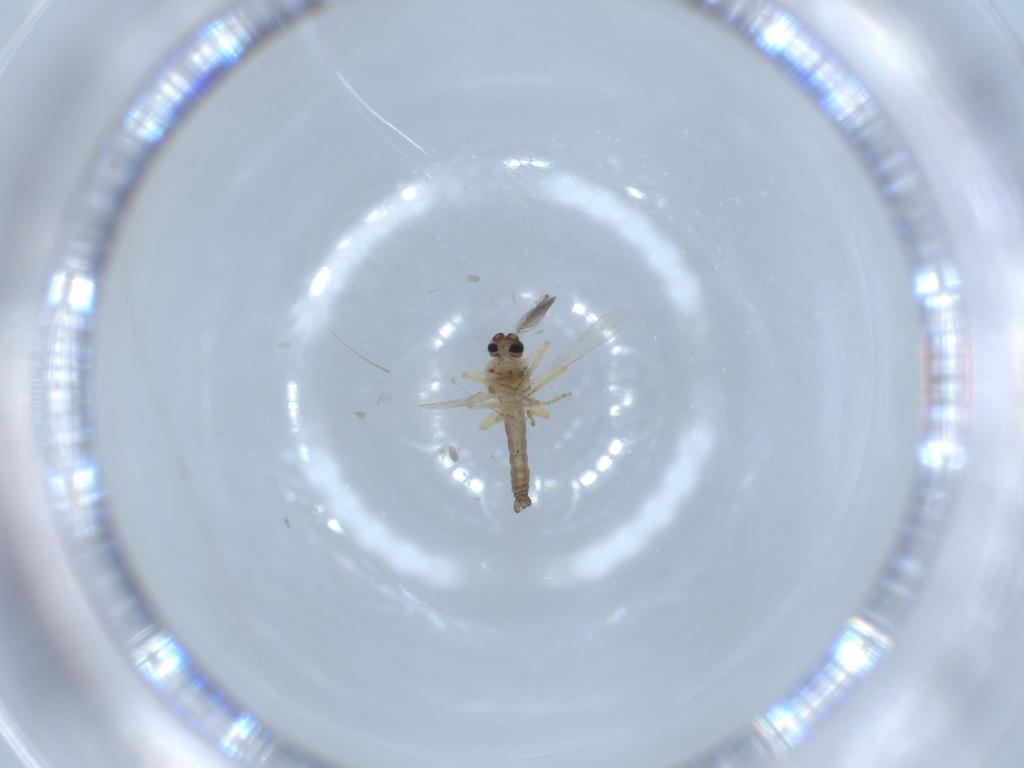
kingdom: Animalia
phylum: Arthropoda
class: Insecta
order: Diptera
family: Ceratopogonidae
